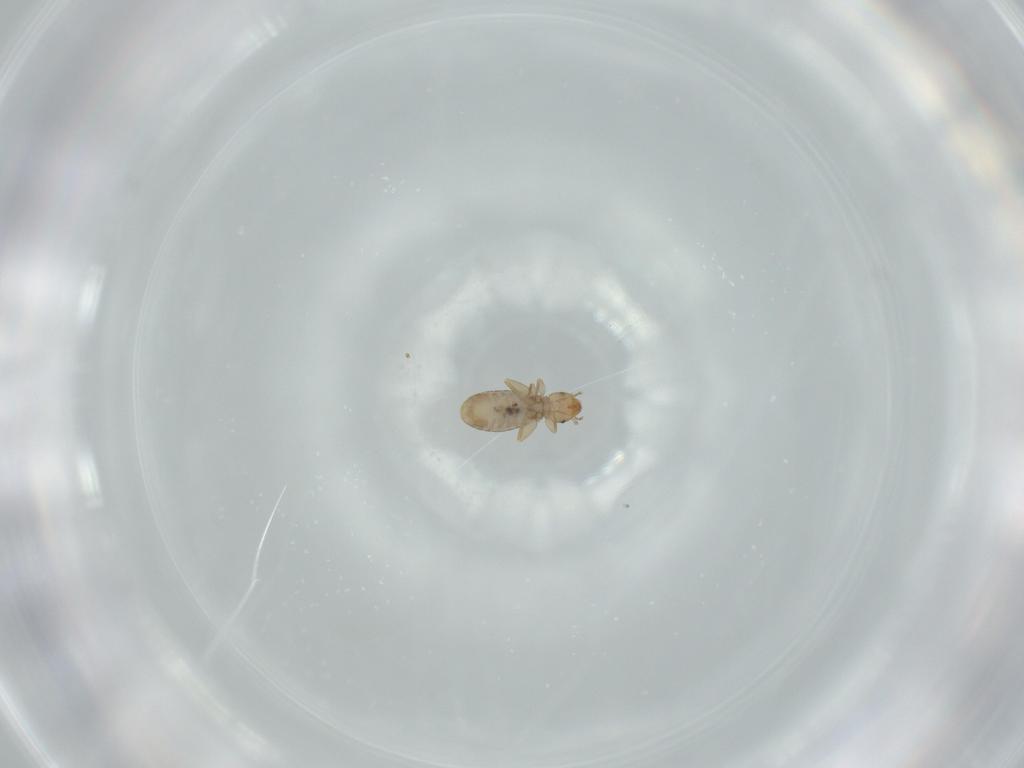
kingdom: Animalia
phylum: Arthropoda
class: Insecta
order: Psocodea
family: Liposcelididae
